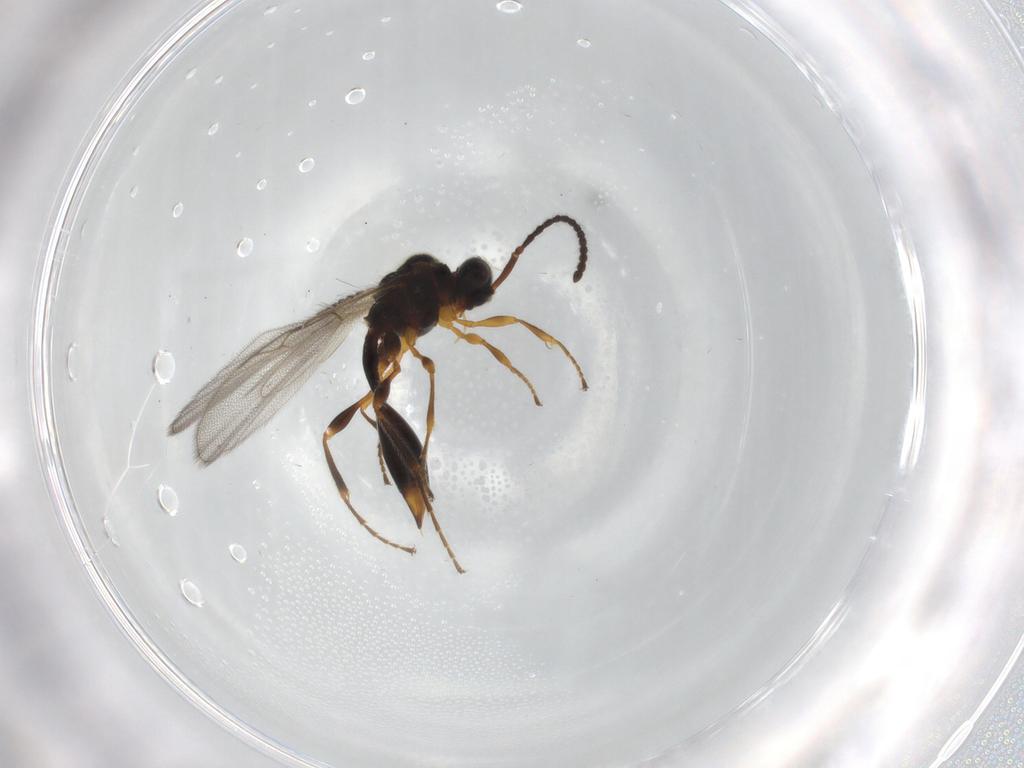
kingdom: Animalia
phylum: Arthropoda
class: Insecta
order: Hymenoptera
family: Diapriidae
